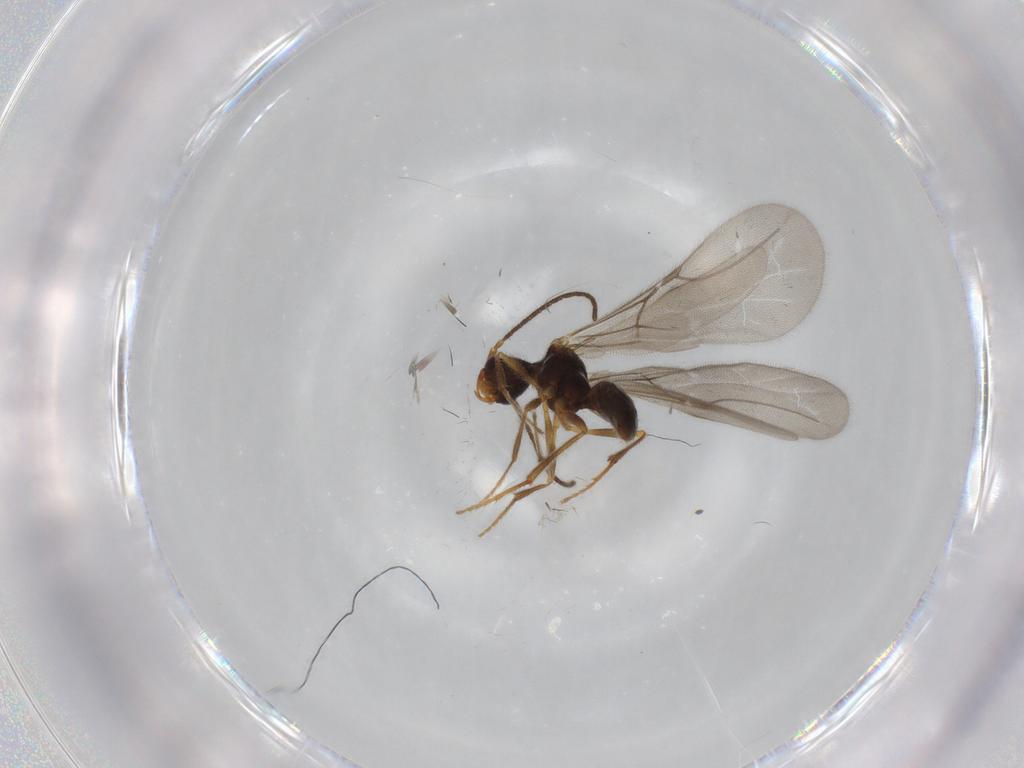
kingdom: Animalia
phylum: Arthropoda
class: Insecta
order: Hymenoptera
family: Bethylidae
